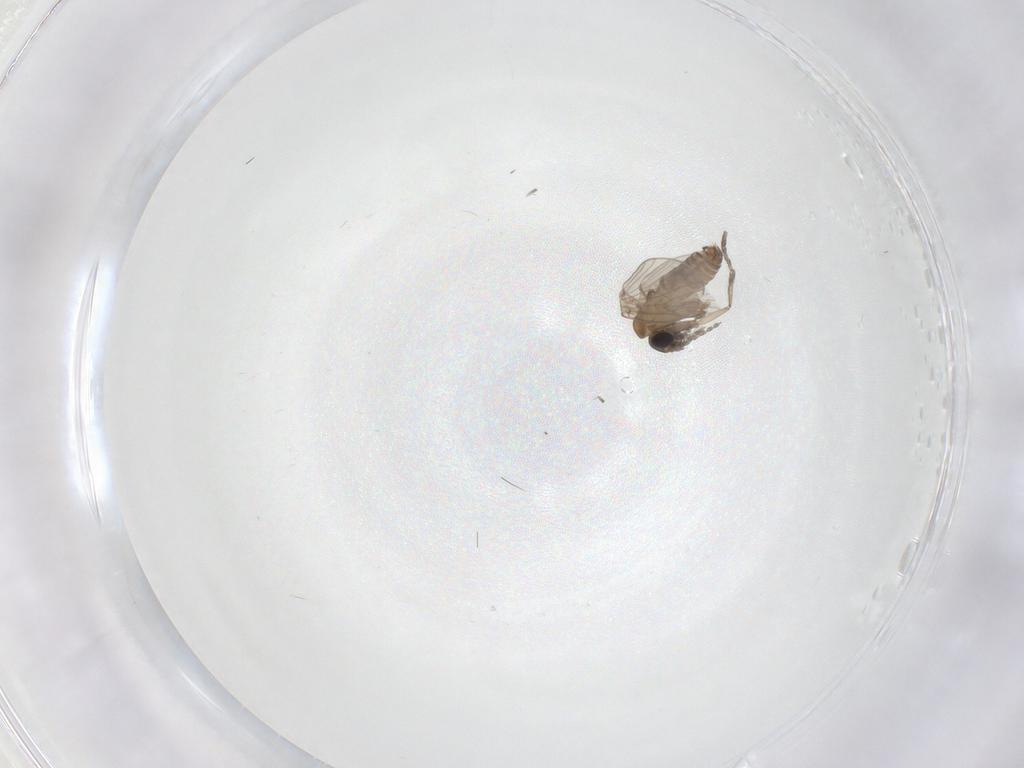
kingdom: Animalia
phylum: Arthropoda
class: Insecta
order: Diptera
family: Psychodidae
